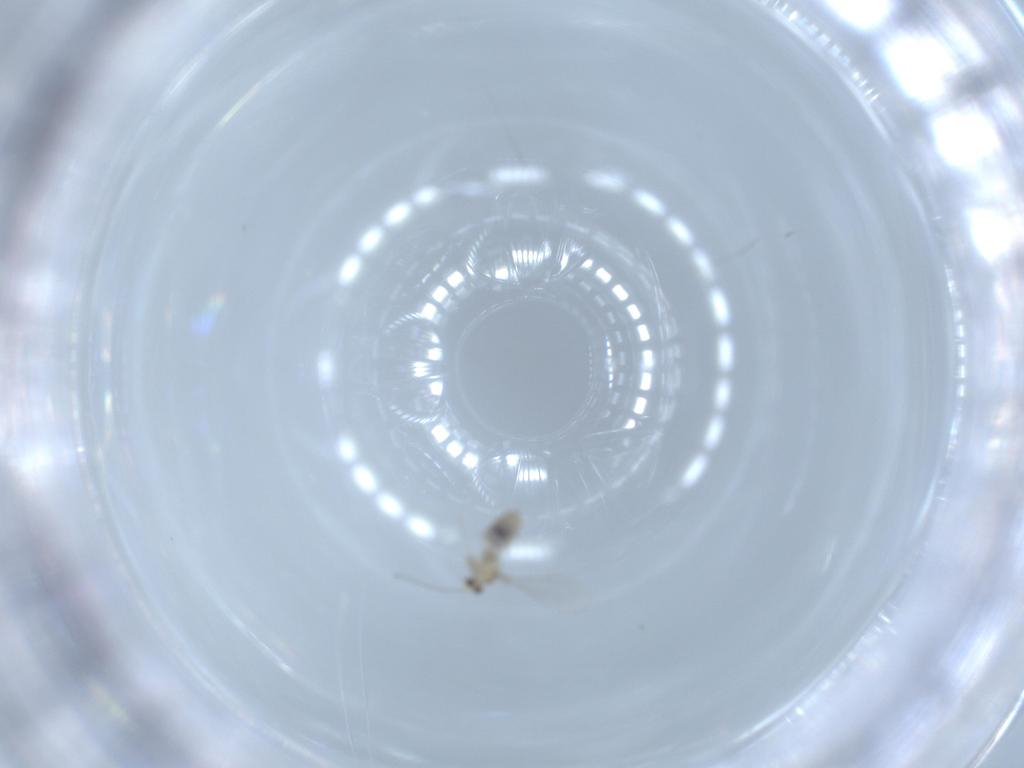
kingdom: Animalia
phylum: Arthropoda
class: Insecta
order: Diptera
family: Cecidomyiidae
